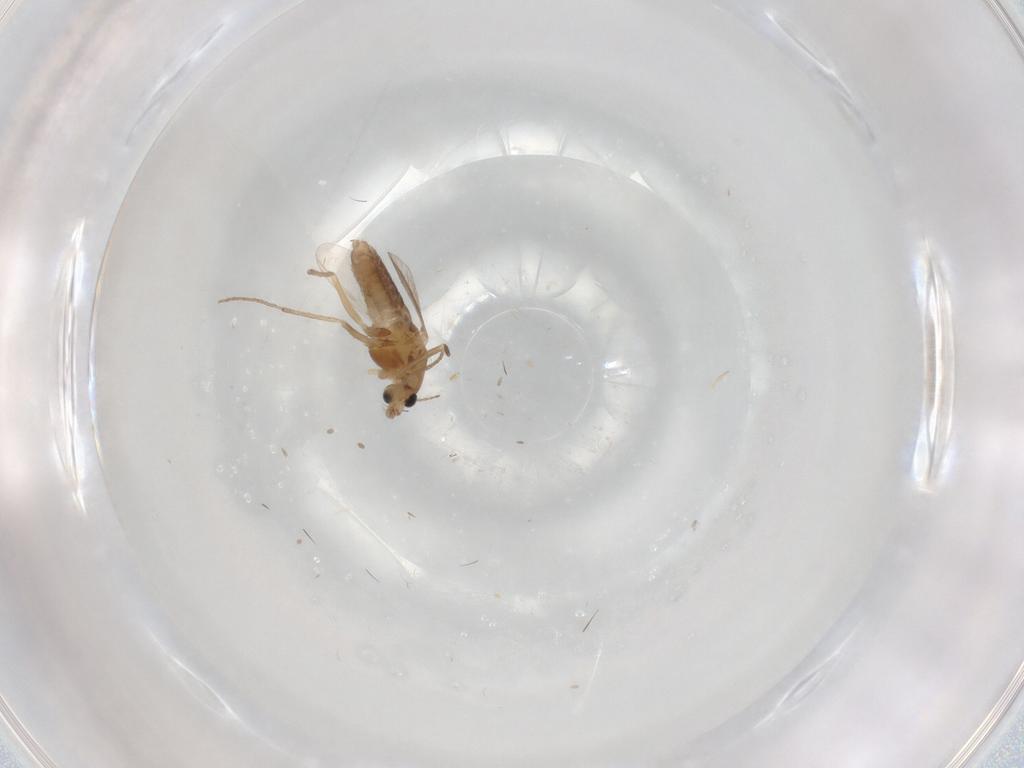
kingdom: Animalia
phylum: Arthropoda
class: Insecta
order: Diptera
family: Chironomidae
